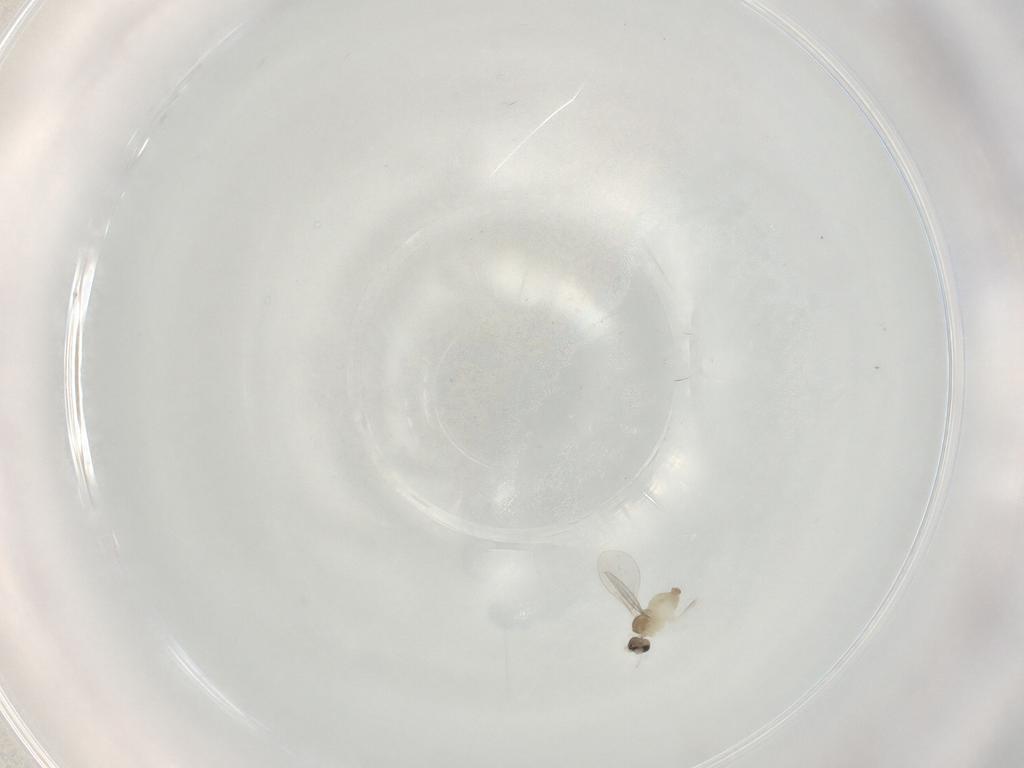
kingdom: Animalia
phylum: Arthropoda
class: Insecta
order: Diptera
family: Cecidomyiidae
